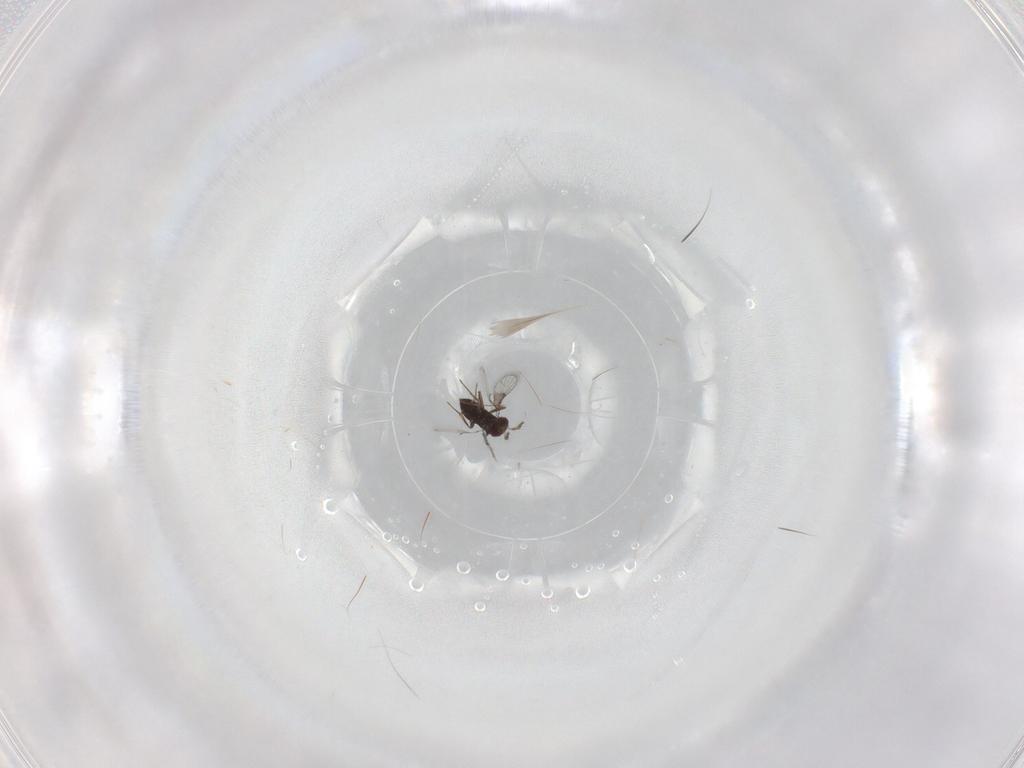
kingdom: Animalia
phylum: Arthropoda
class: Insecta
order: Hymenoptera
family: Trichogrammatidae
